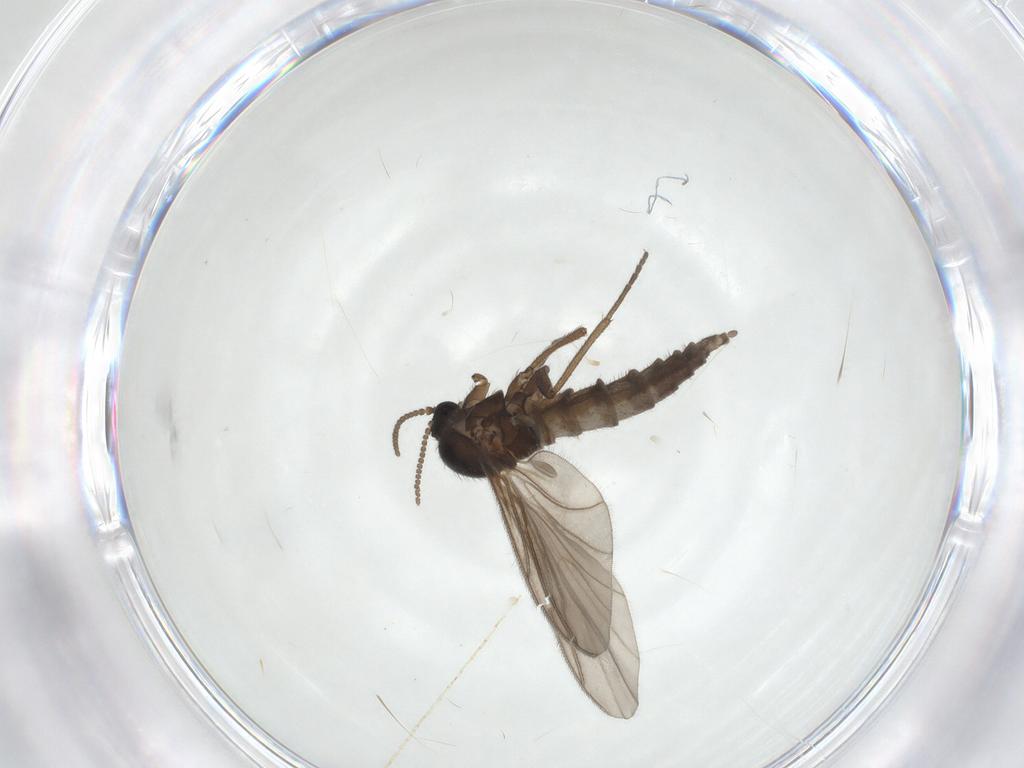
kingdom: Animalia
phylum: Arthropoda
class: Insecta
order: Diptera
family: Sciaridae
